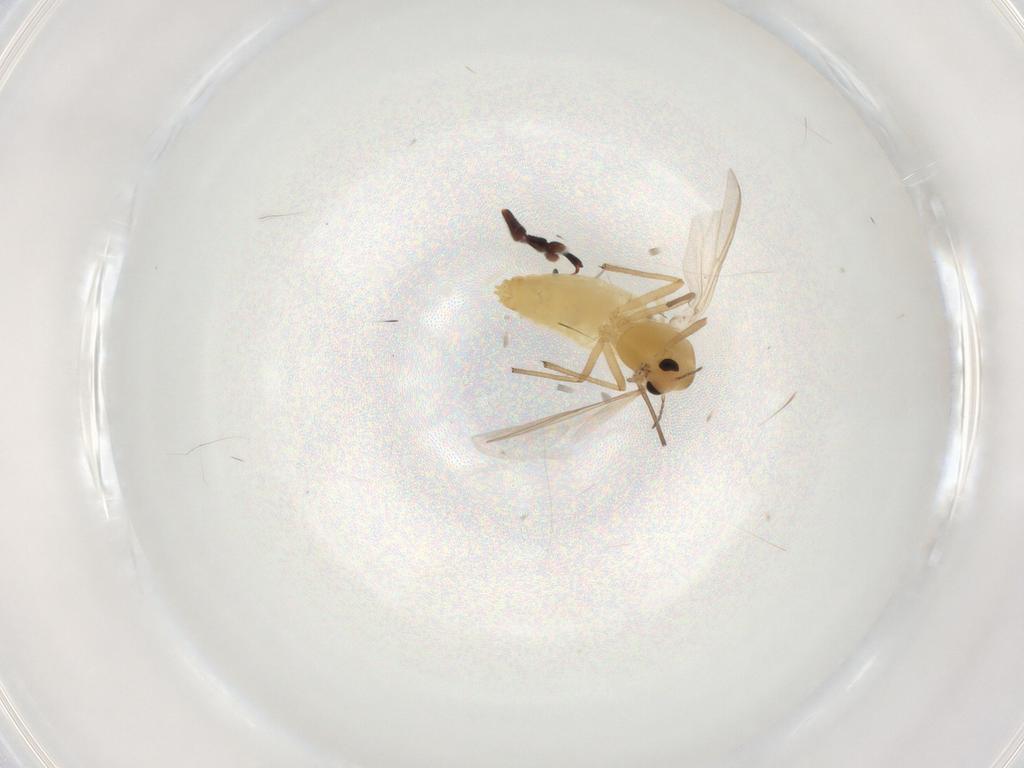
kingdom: Animalia
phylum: Arthropoda
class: Insecta
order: Diptera
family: Chironomidae
